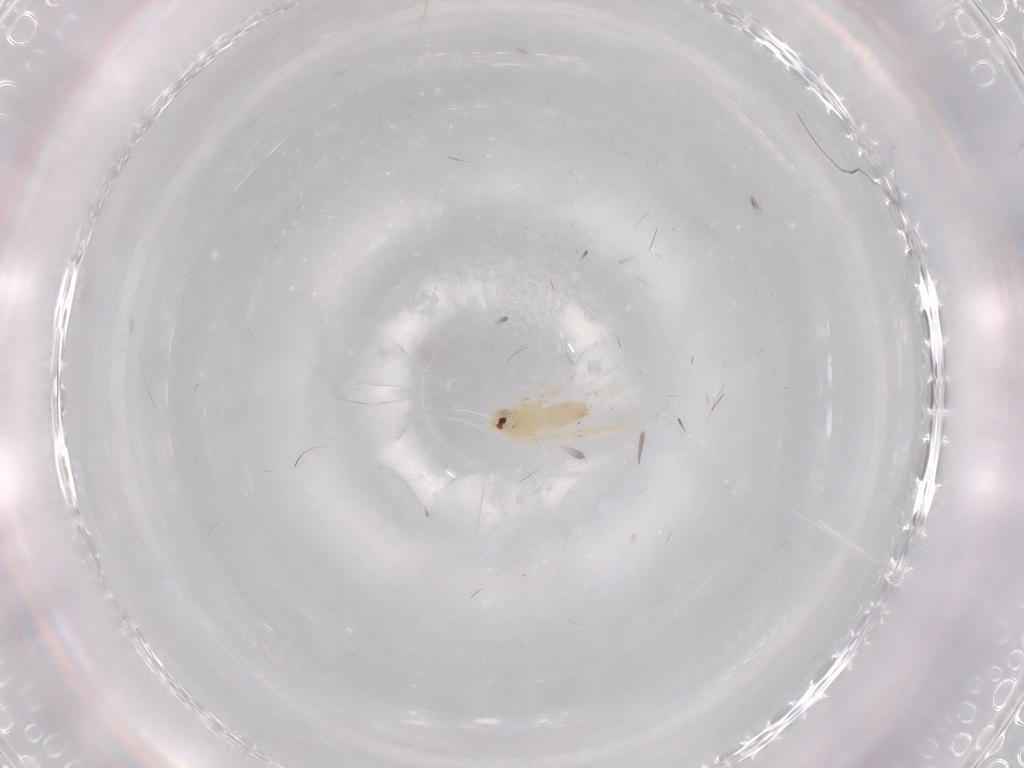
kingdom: Animalia
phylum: Arthropoda
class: Insecta
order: Hemiptera
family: Aleyrodidae
